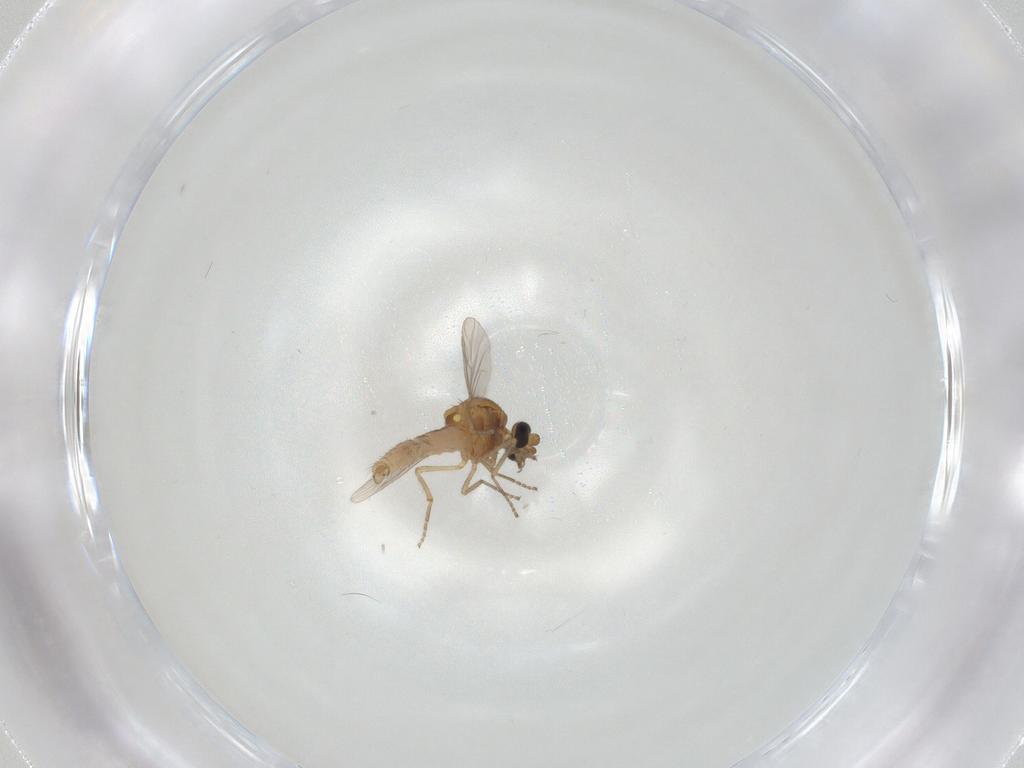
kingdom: Animalia
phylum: Arthropoda
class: Insecta
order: Diptera
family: Ceratopogonidae
